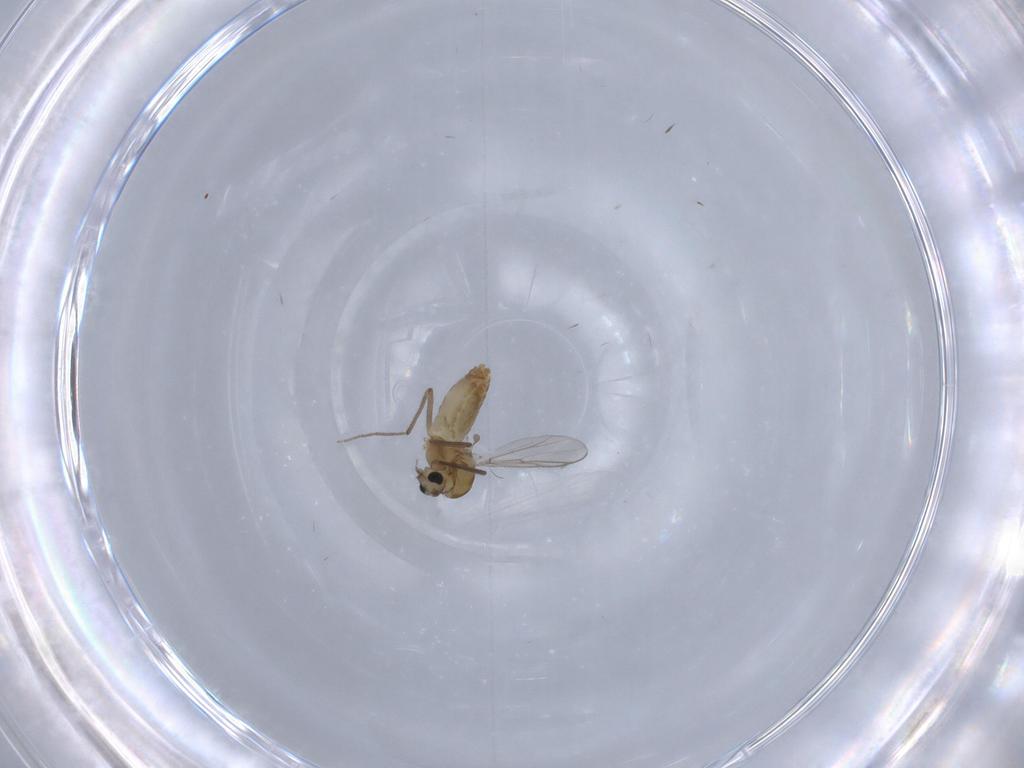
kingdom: Animalia
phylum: Arthropoda
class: Insecta
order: Diptera
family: Chironomidae
